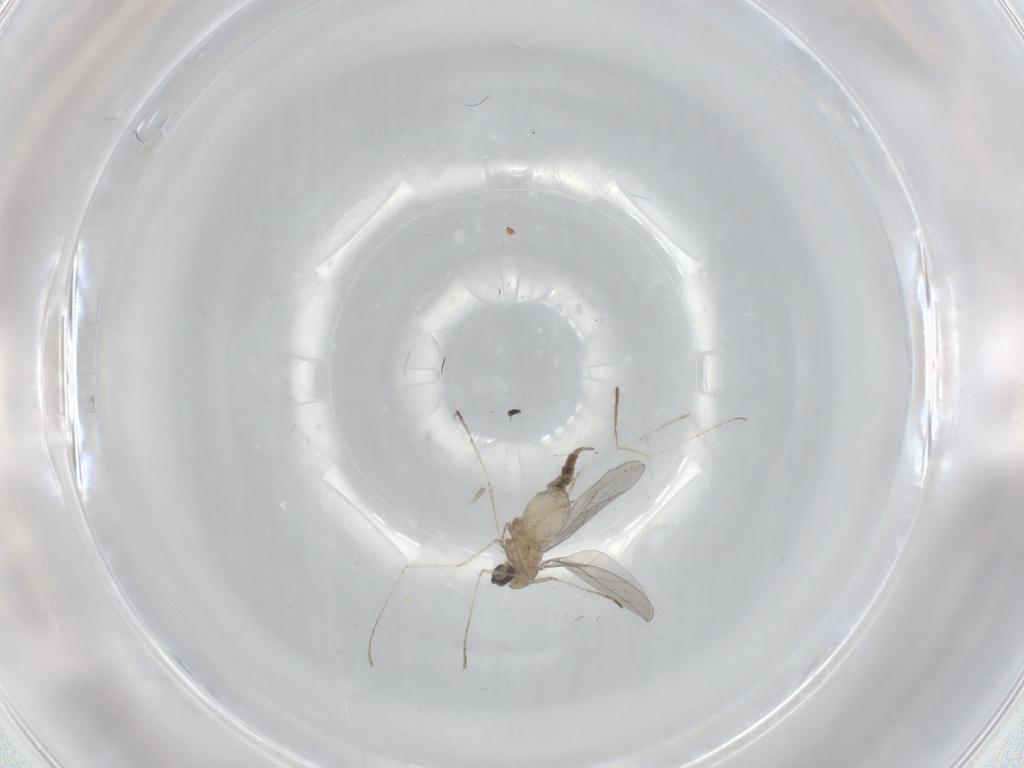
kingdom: Animalia
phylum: Arthropoda
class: Insecta
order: Diptera
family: Cecidomyiidae
